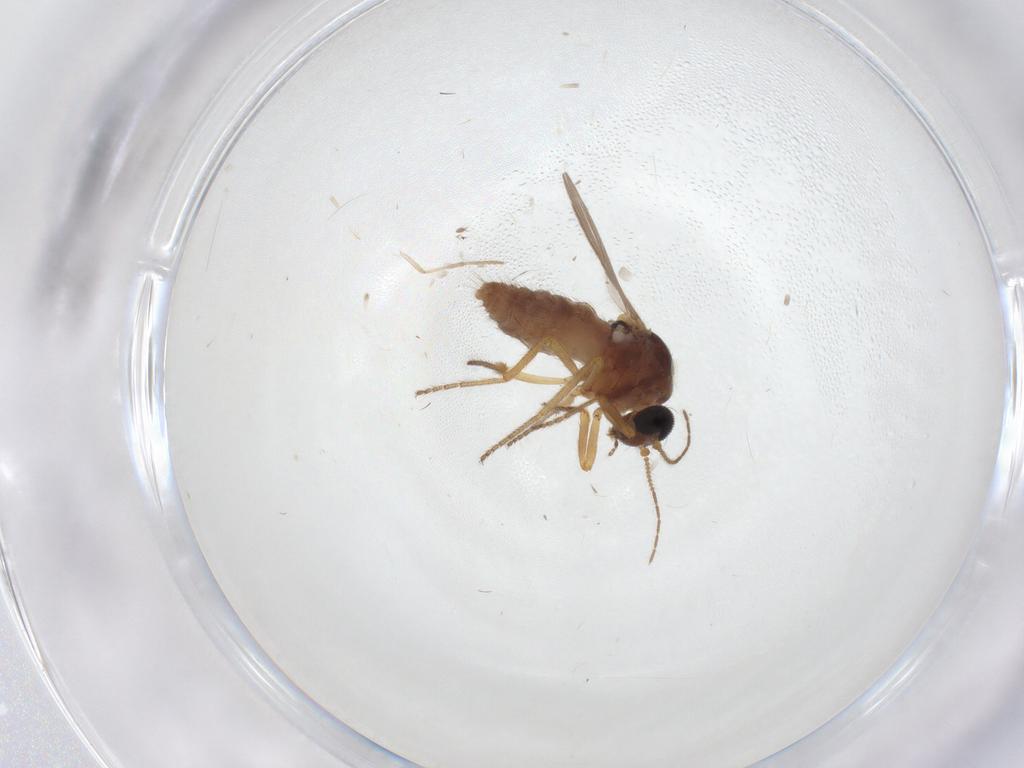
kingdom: Animalia
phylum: Arthropoda
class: Insecta
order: Diptera
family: Ceratopogonidae
